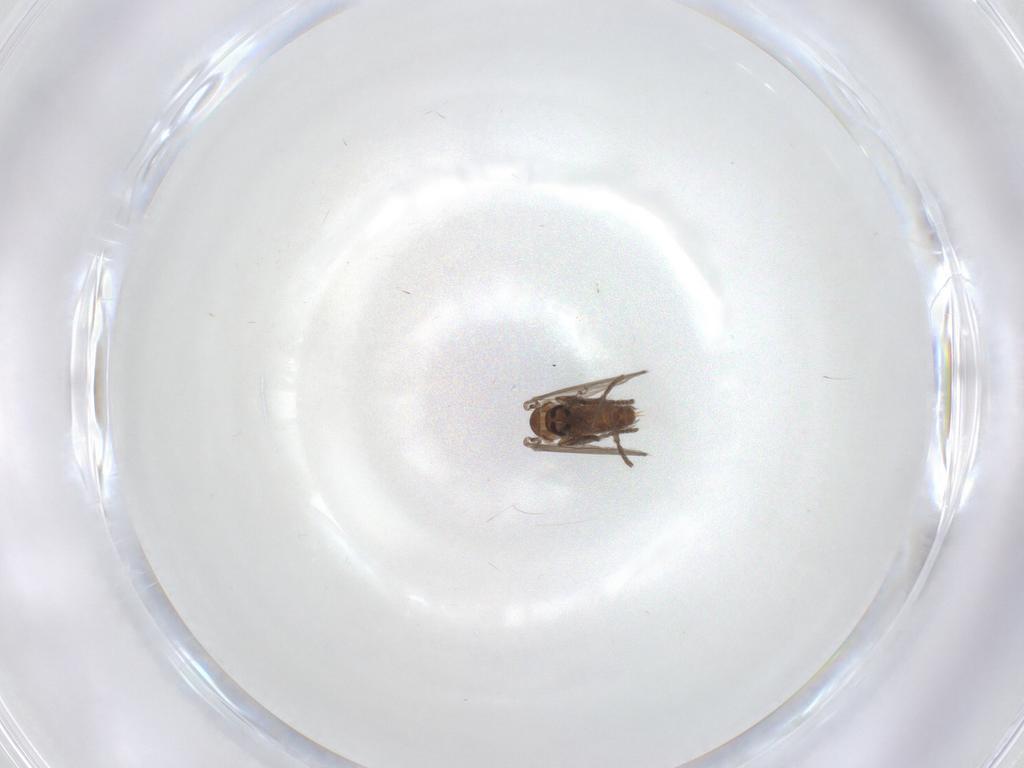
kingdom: Animalia
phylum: Arthropoda
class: Insecta
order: Diptera
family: Psychodidae
